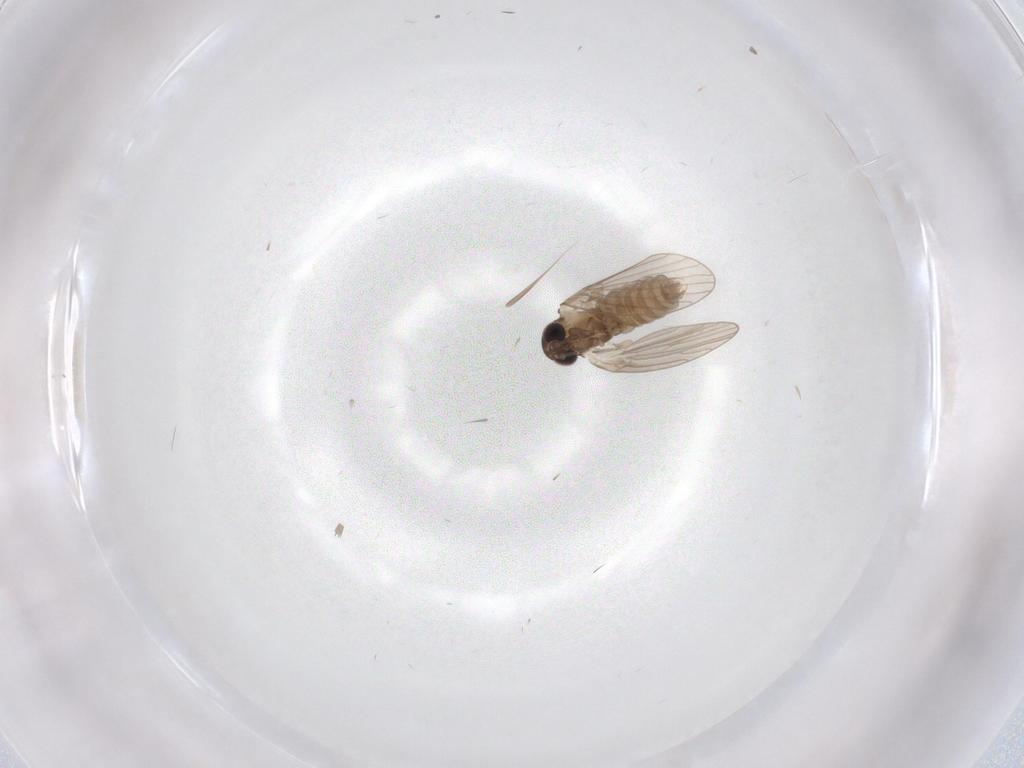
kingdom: Animalia
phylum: Arthropoda
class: Insecta
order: Diptera
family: Psychodidae
